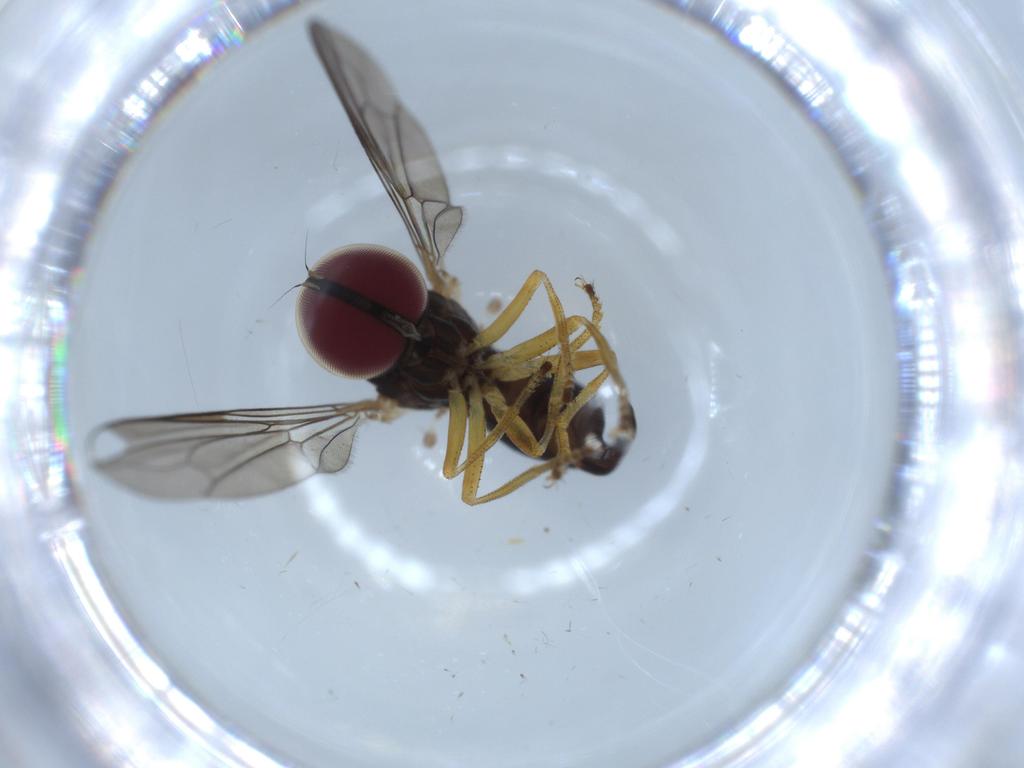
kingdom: Animalia
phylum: Arthropoda
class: Insecta
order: Diptera
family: Pipunculidae
